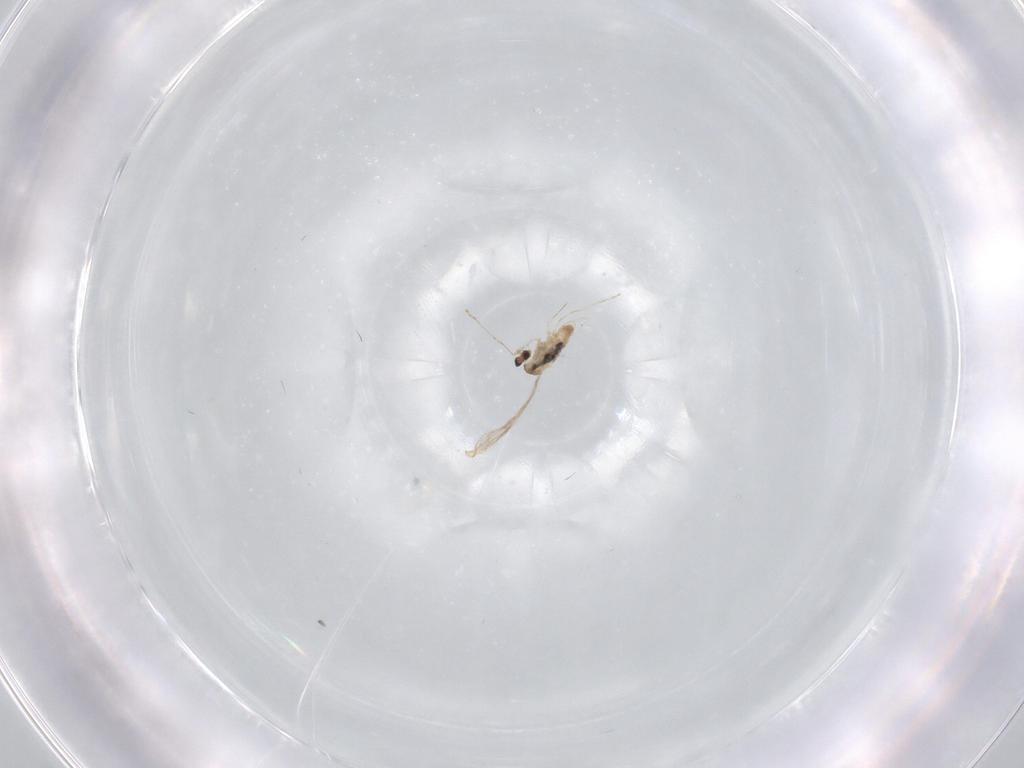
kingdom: Animalia
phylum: Arthropoda
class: Insecta
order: Diptera
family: Cecidomyiidae
